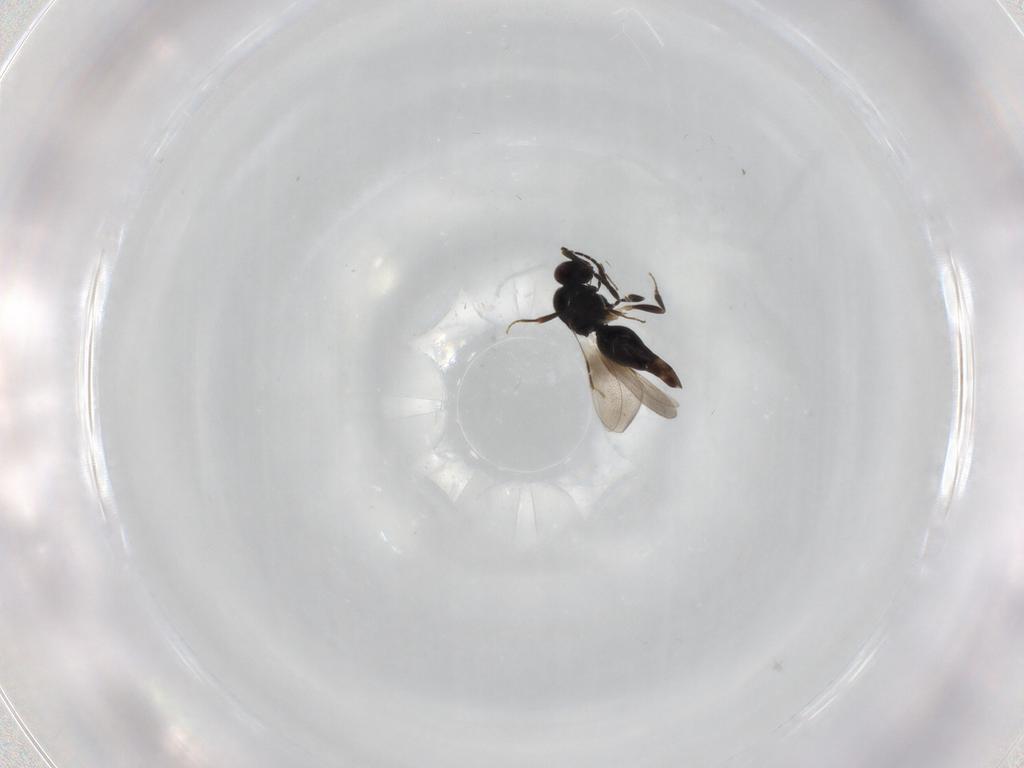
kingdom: Animalia
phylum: Arthropoda
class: Insecta
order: Hymenoptera
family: Ceraphronidae
